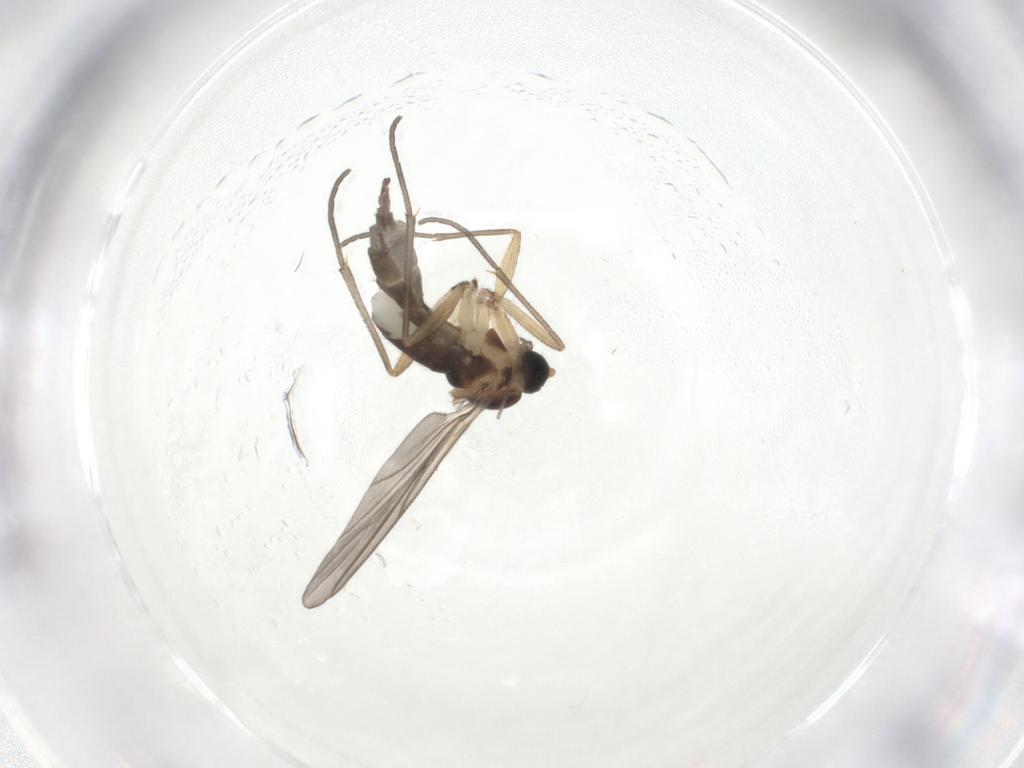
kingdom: Animalia
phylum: Arthropoda
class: Insecta
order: Diptera
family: Sciaridae
